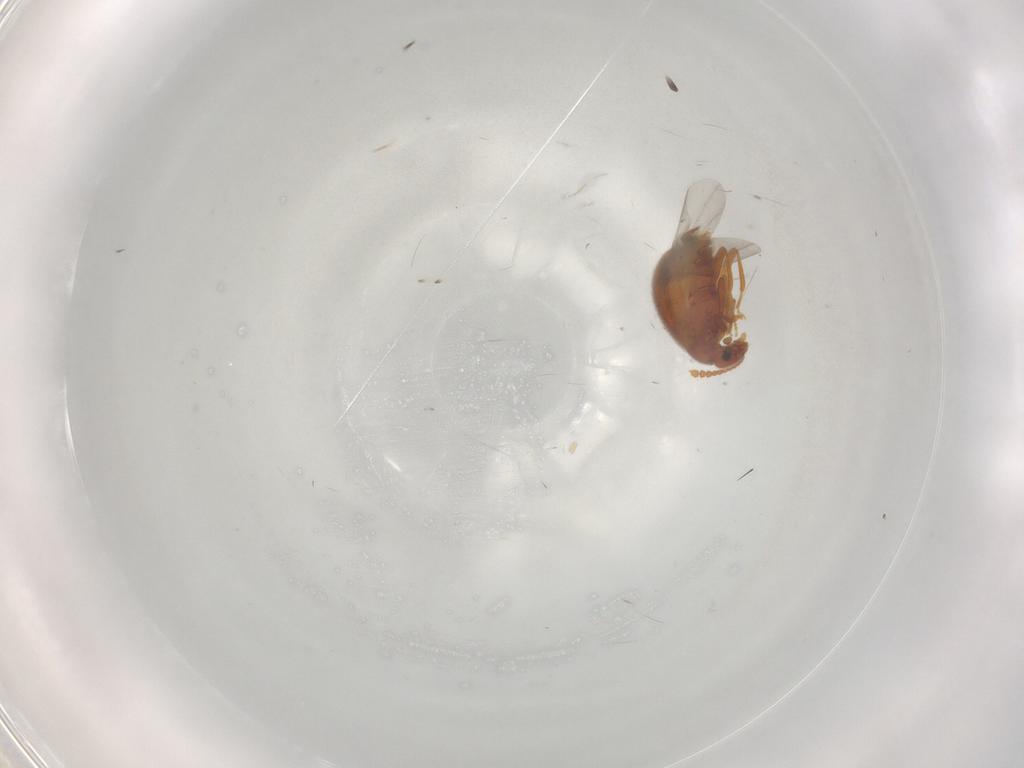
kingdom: Animalia
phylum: Arthropoda
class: Insecta
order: Coleoptera
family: Aderidae
